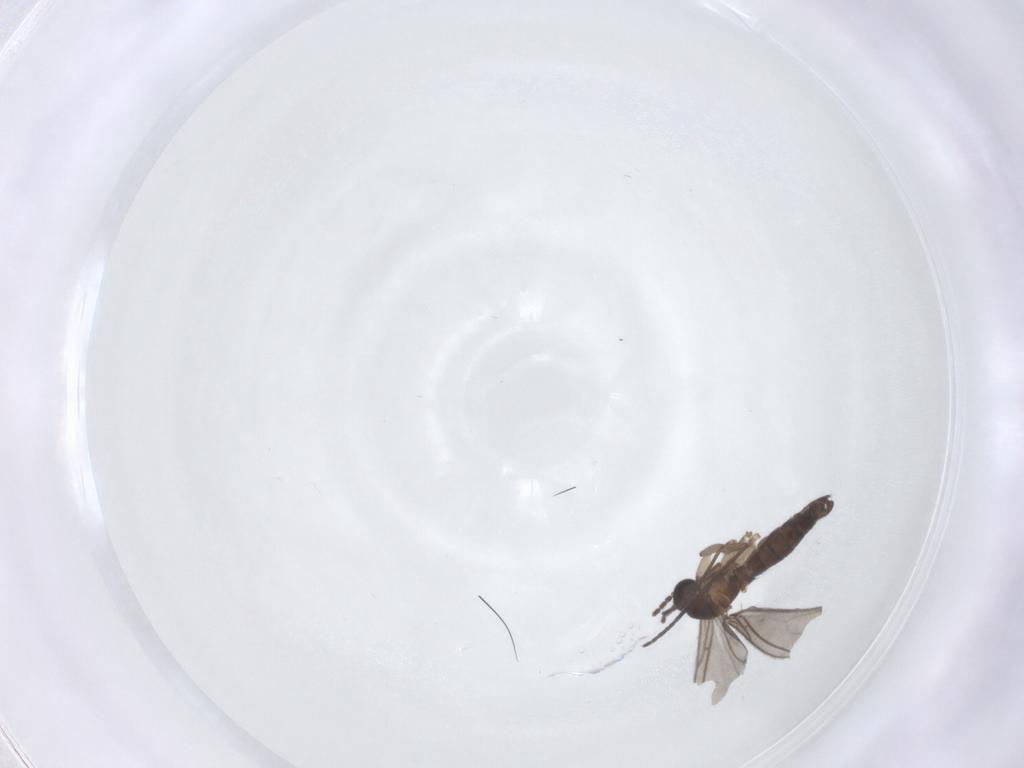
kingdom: Animalia
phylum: Arthropoda
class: Insecta
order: Diptera
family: Sciaridae
